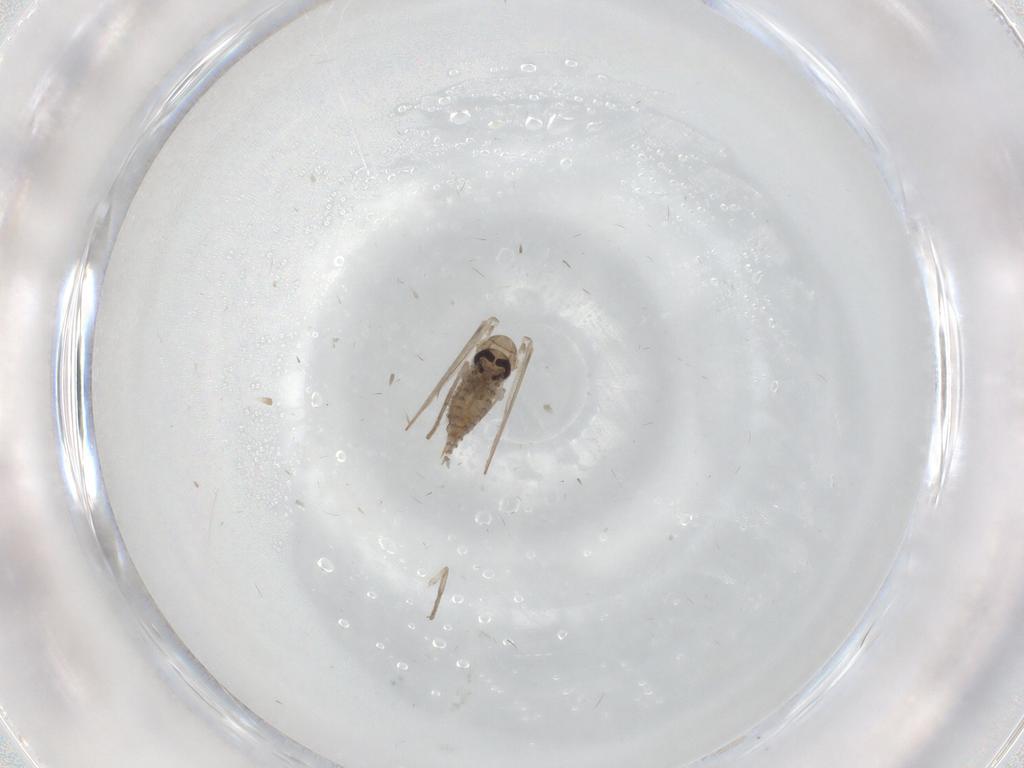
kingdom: Animalia
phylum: Arthropoda
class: Insecta
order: Diptera
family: Psychodidae
